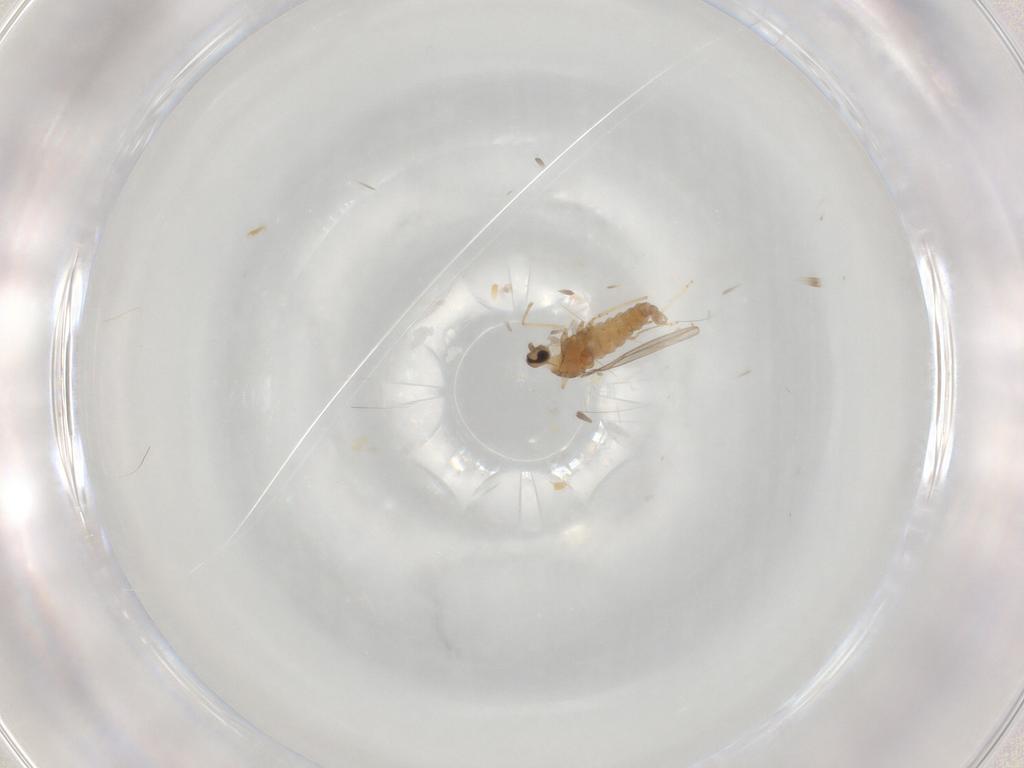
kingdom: Animalia
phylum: Arthropoda
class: Insecta
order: Diptera
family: Cecidomyiidae
